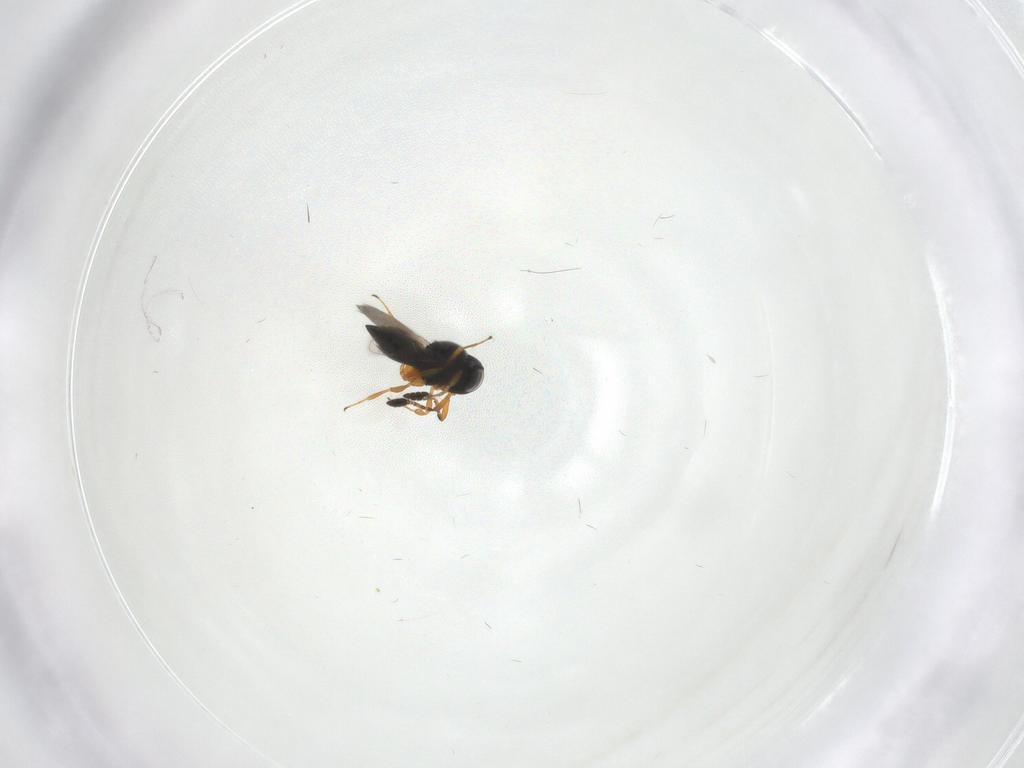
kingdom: Animalia
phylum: Arthropoda
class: Insecta
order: Hymenoptera
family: Scelionidae
